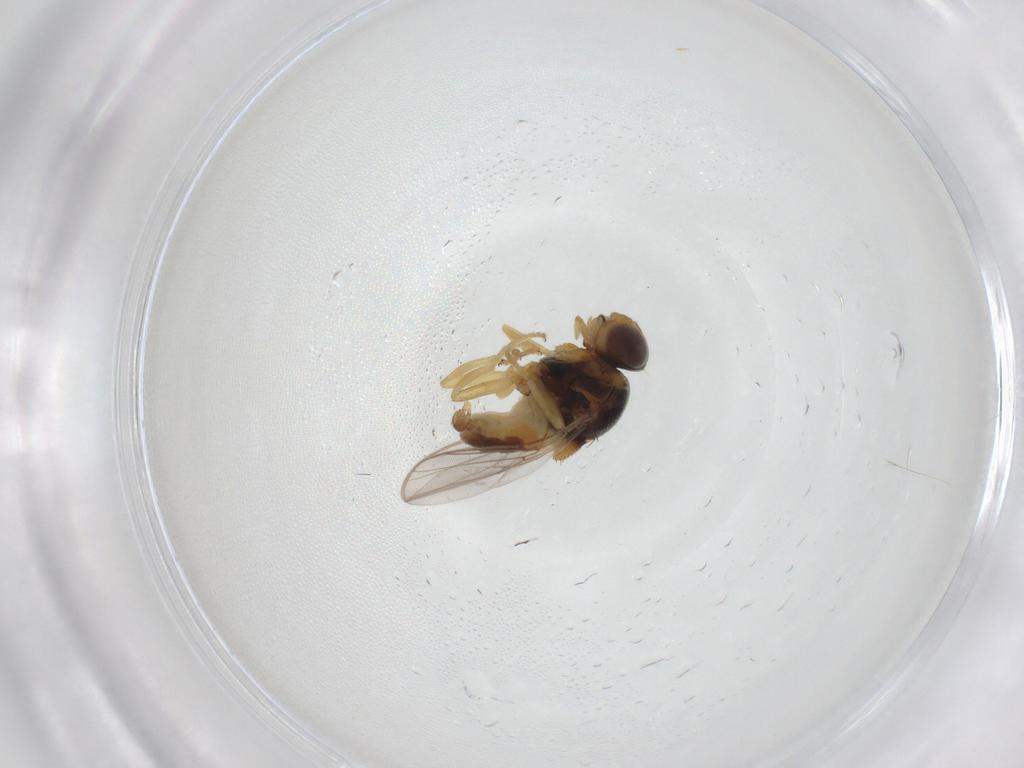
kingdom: Animalia
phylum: Arthropoda
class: Insecta
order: Diptera
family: Chloropidae
